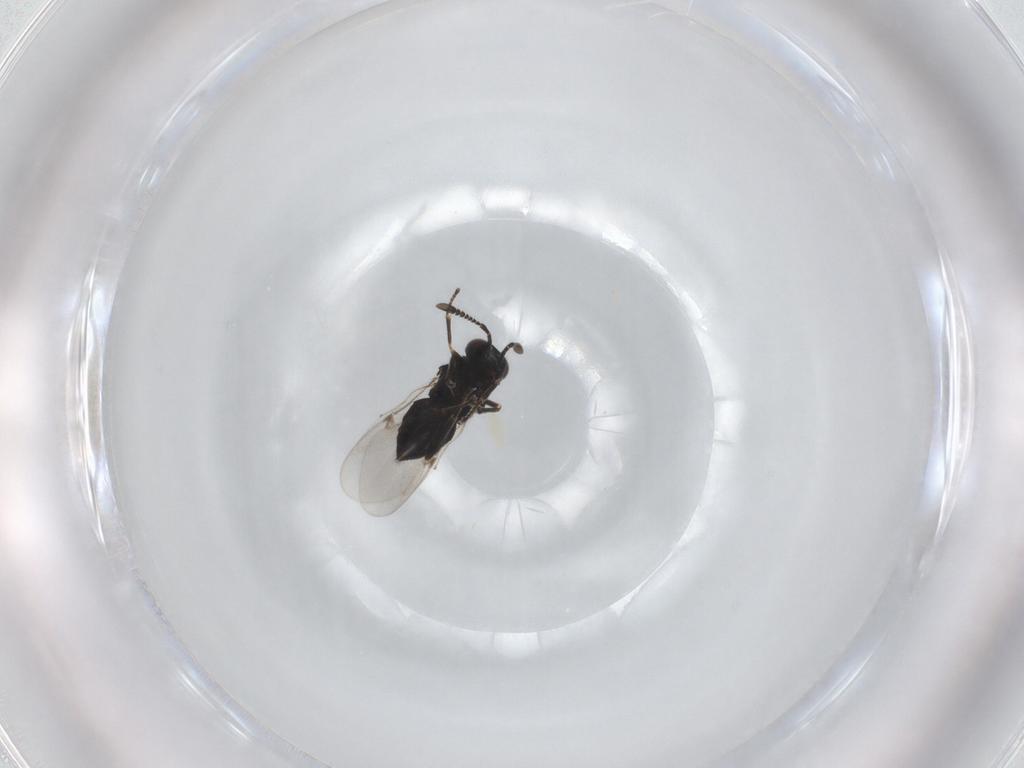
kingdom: Animalia
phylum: Arthropoda
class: Insecta
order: Hymenoptera
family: Encyrtidae
